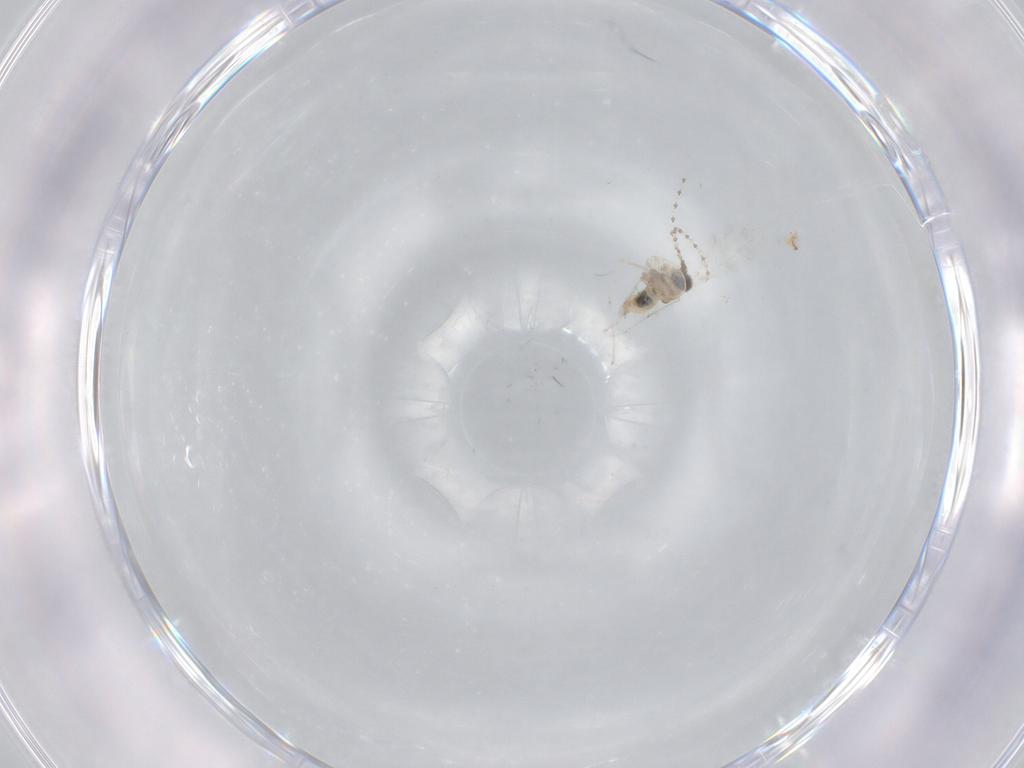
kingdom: Animalia
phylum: Arthropoda
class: Insecta
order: Diptera
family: Cecidomyiidae
